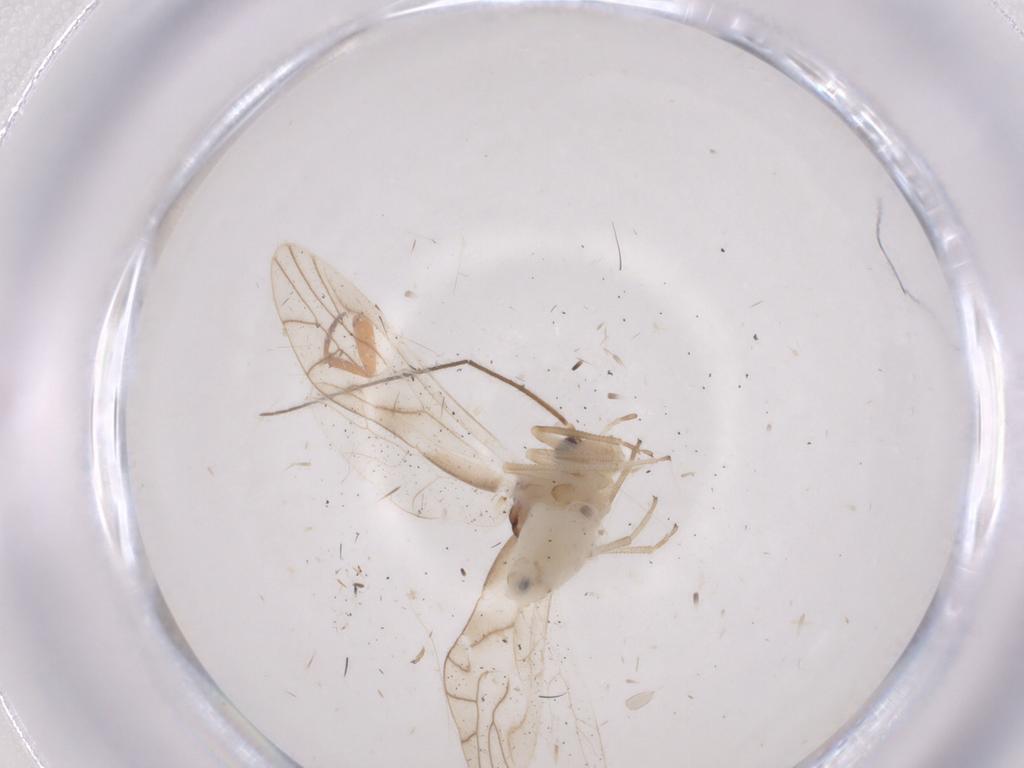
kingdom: Animalia
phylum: Arthropoda
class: Insecta
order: Psocodea
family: Caeciliusidae
